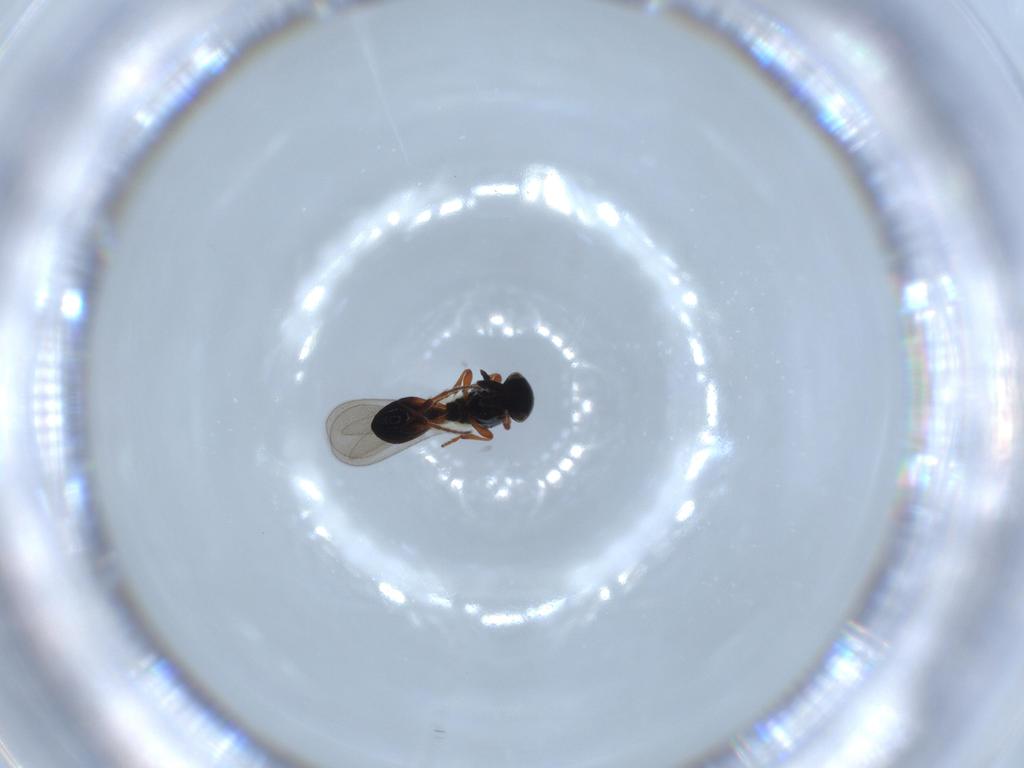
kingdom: Animalia
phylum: Arthropoda
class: Insecta
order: Hymenoptera
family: Platygastridae
